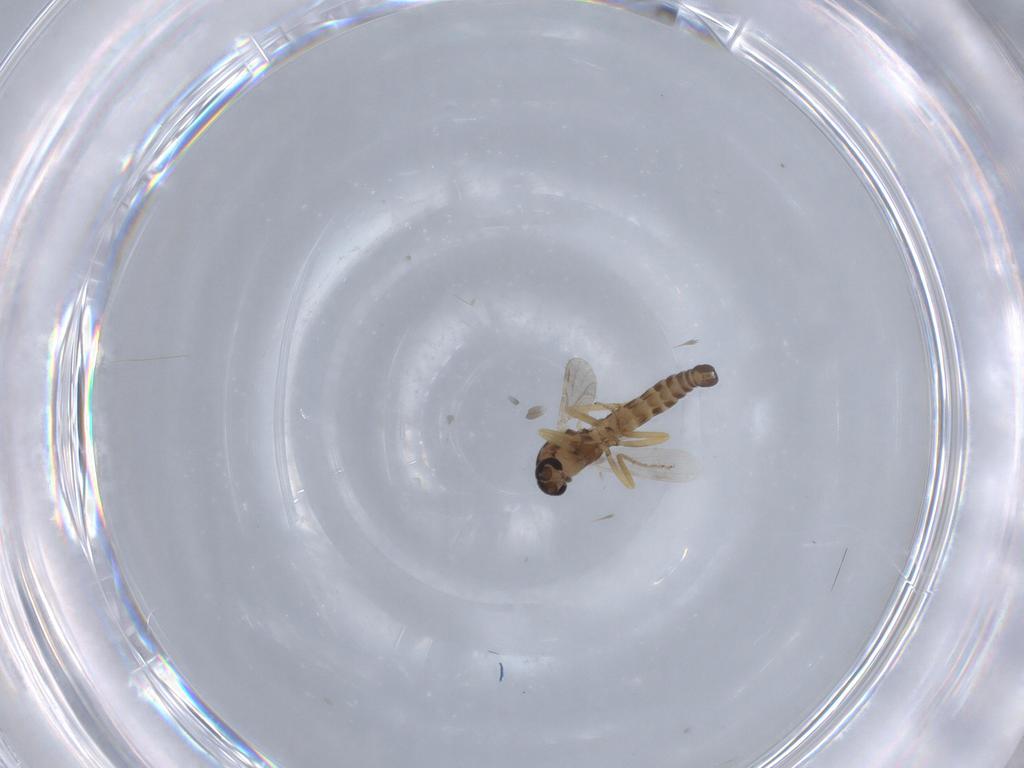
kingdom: Animalia
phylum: Arthropoda
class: Insecta
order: Diptera
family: Ceratopogonidae
